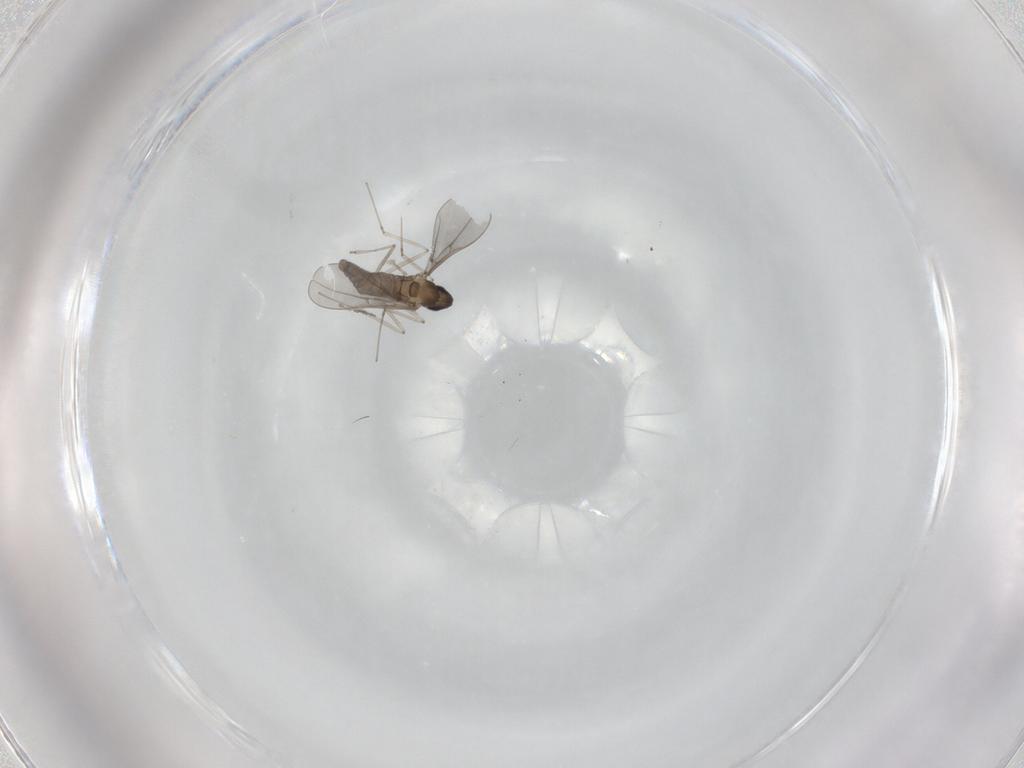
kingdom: Animalia
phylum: Arthropoda
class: Insecta
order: Diptera
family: Cecidomyiidae
